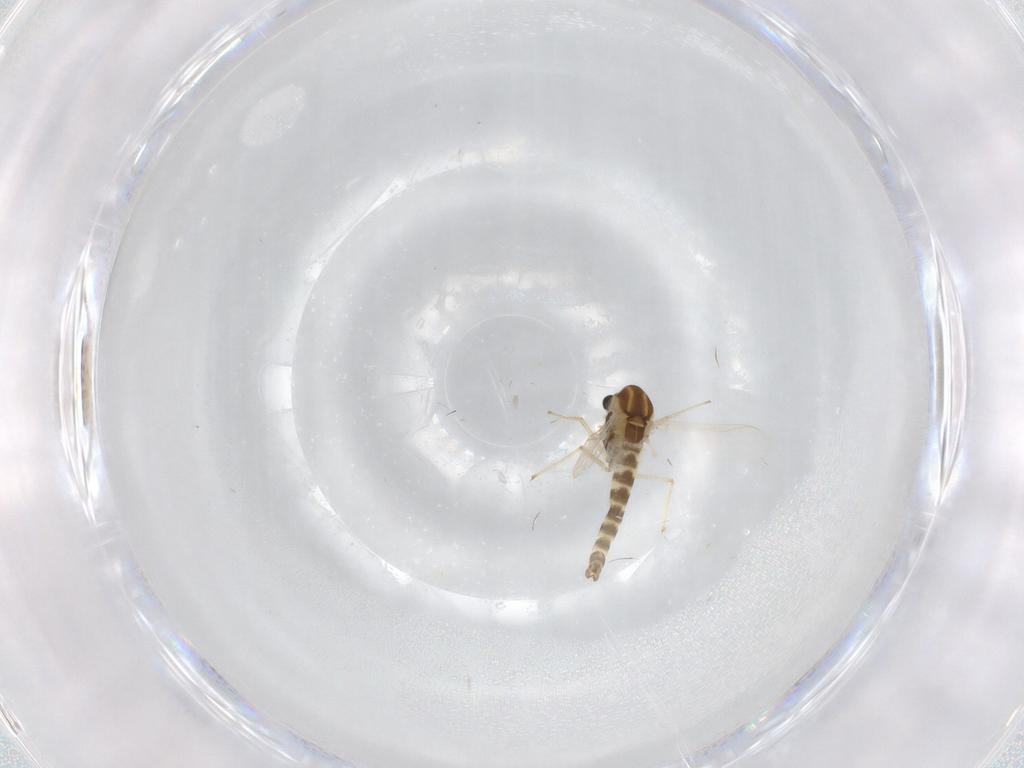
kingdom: Animalia
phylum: Arthropoda
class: Insecta
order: Diptera
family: Chironomidae
